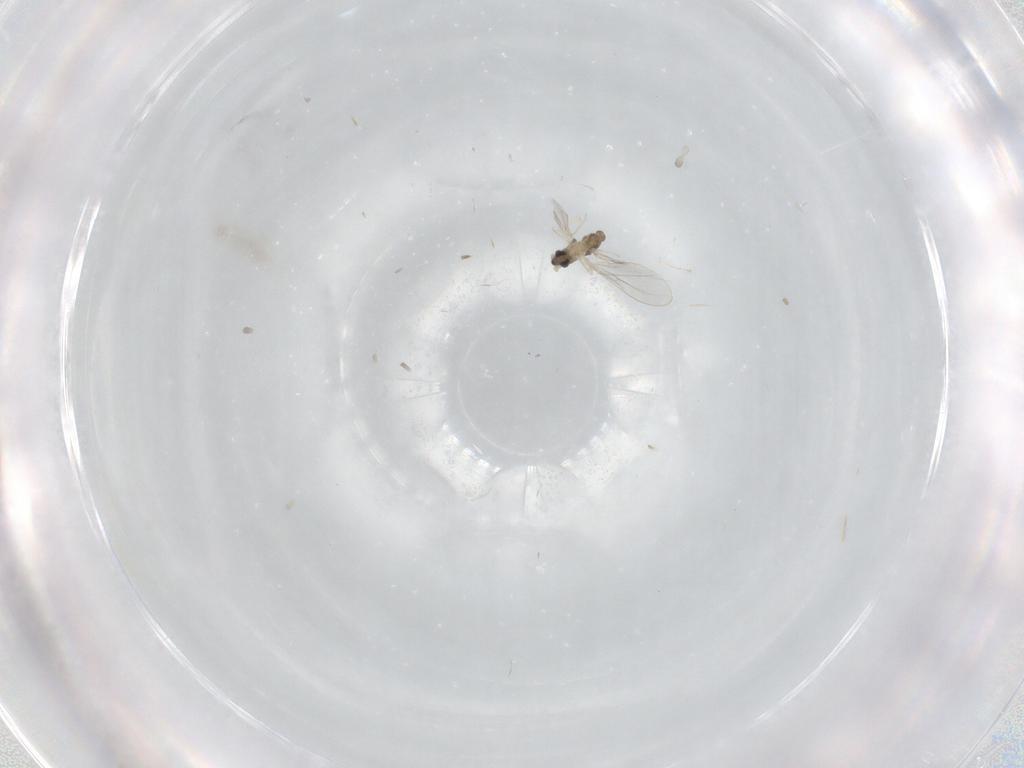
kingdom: Animalia
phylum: Arthropoda
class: Insecta
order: Diptera
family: Cecidomyiidae
